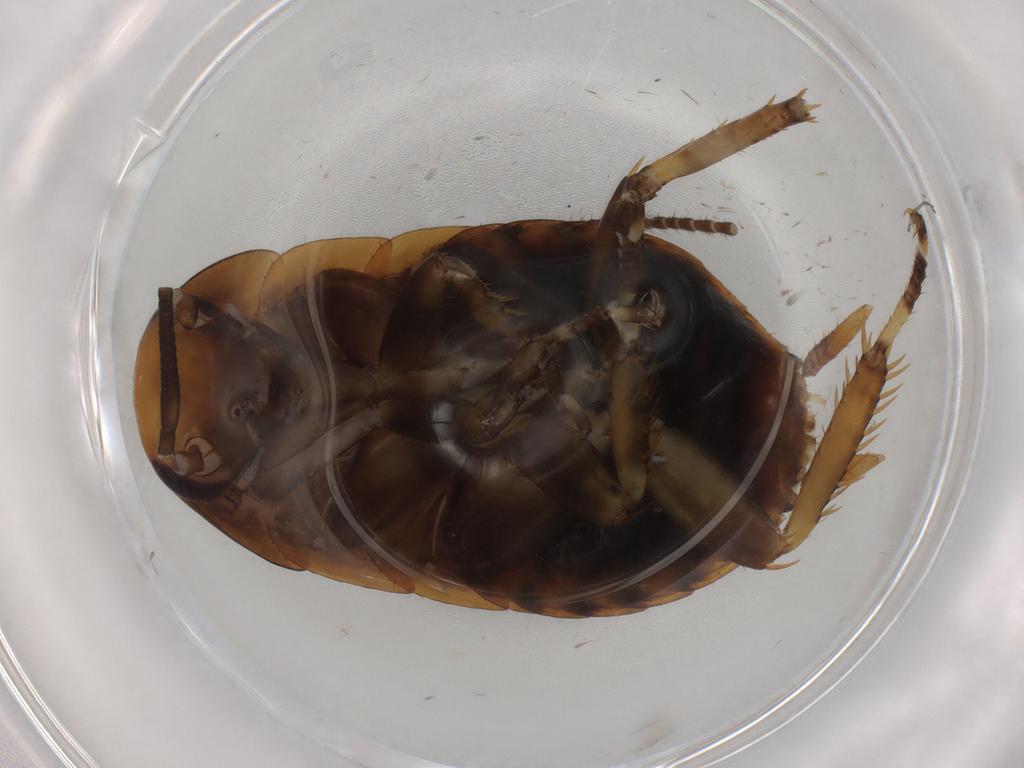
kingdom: Animalia
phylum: Arthropoda
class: Insecta
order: Blattodea
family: Blattidae
